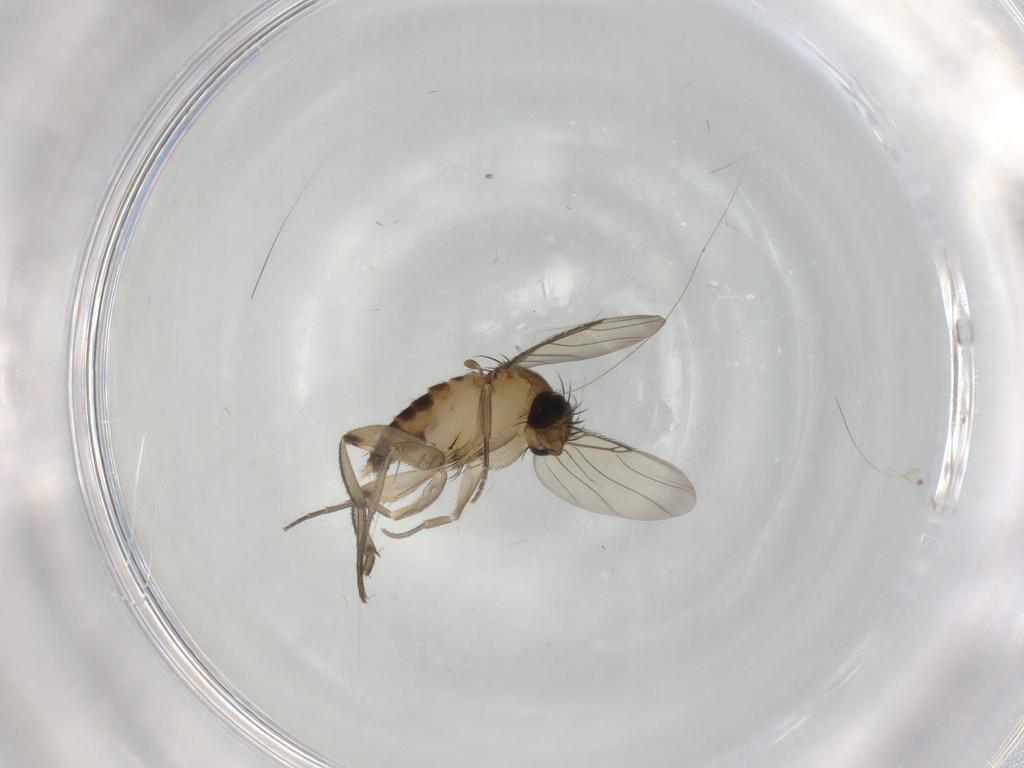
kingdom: Animalia
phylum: Arthropoda
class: Insecta
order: Diptera
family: Phoridae
